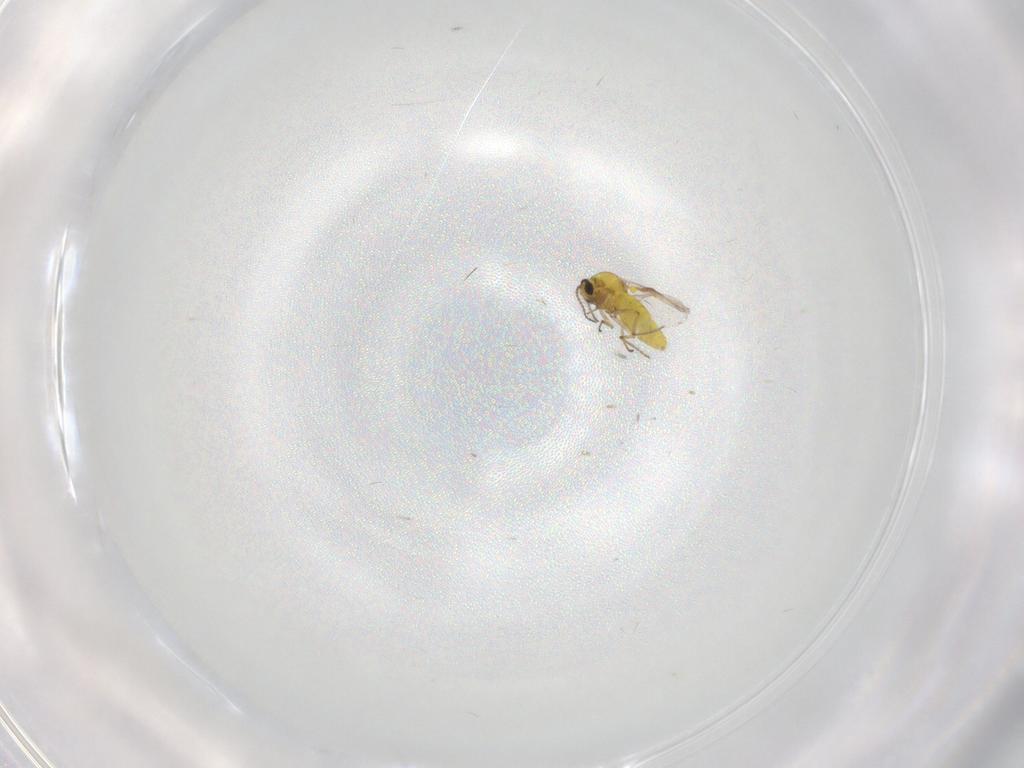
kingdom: Animalia
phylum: Arthropoda
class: Insecta
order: Diptera
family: Ceratopogonidae
